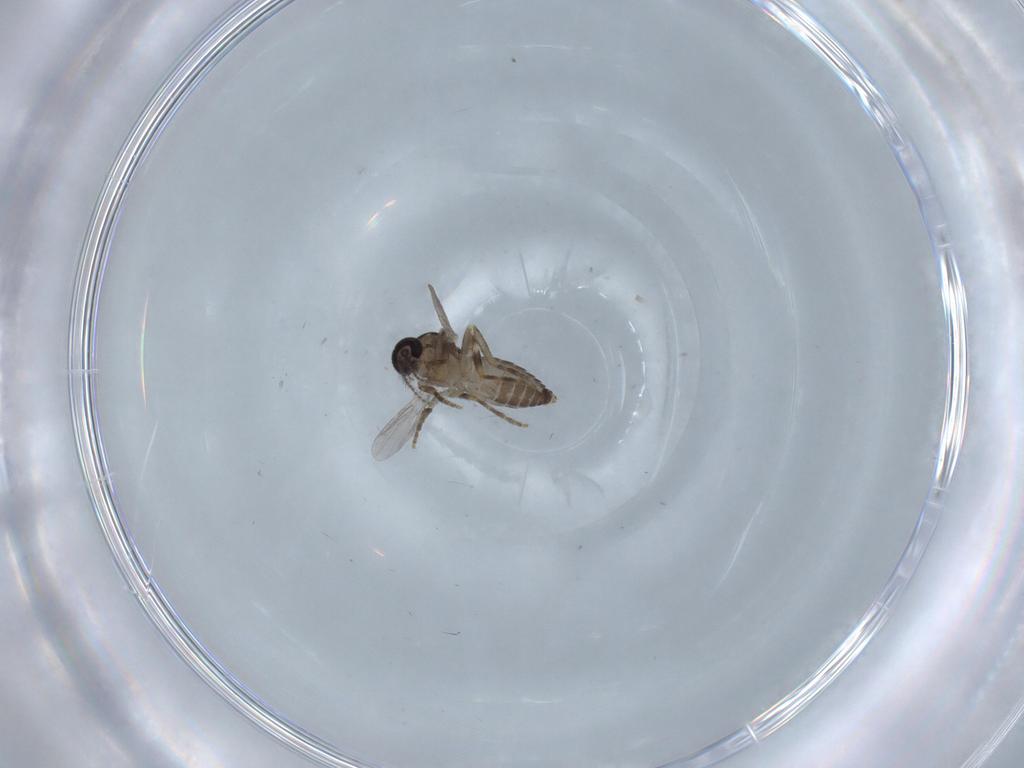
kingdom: Animalia
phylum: Arthropoda
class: Insecta
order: Diptera
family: Ceratopogonidae
